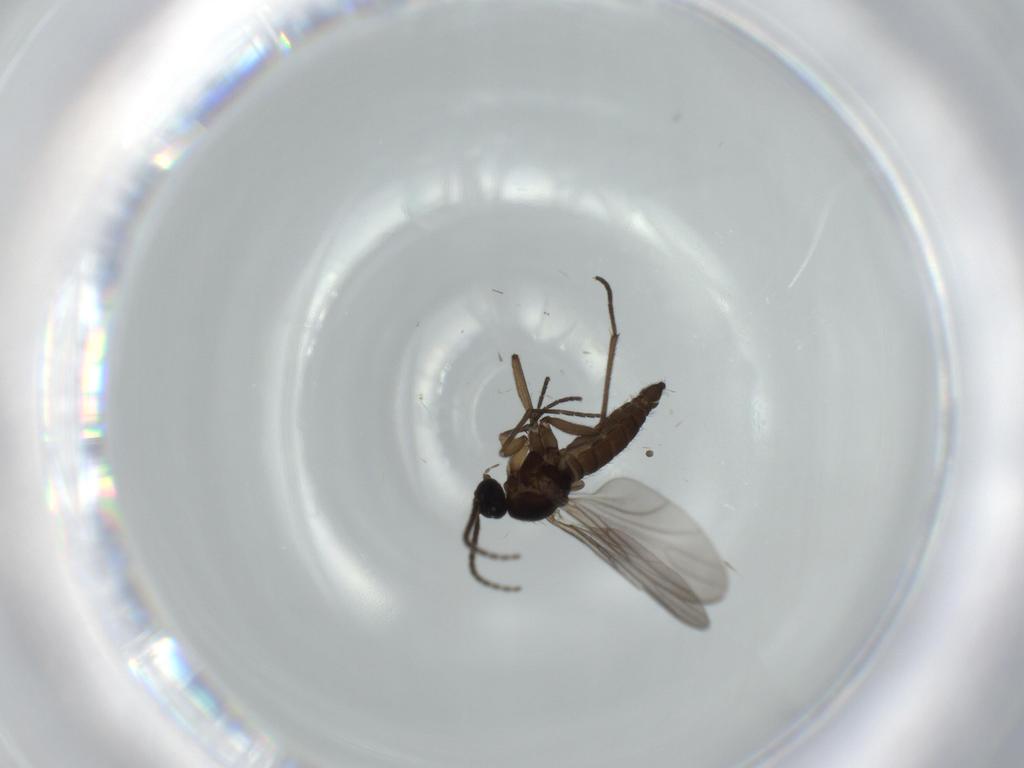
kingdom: Animalia
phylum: Arthropoda
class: Insecta
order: Diptera
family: Sciaridae
